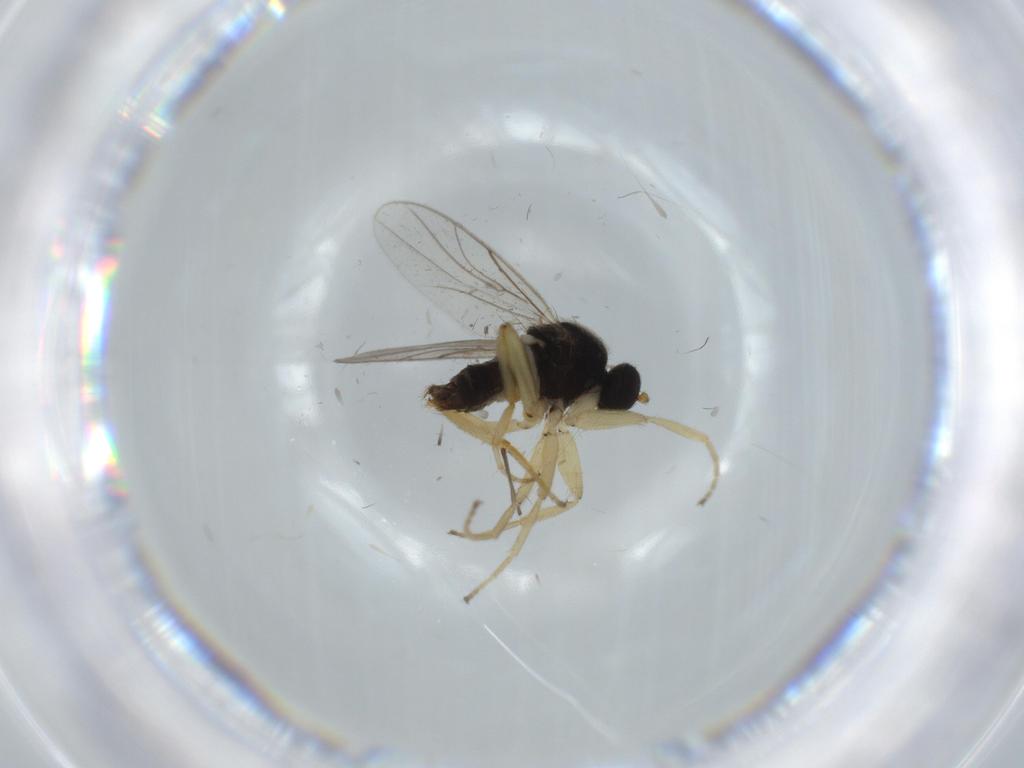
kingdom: Animalia
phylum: Arthropoda
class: Insecta
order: Diptera
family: Hybotidae
